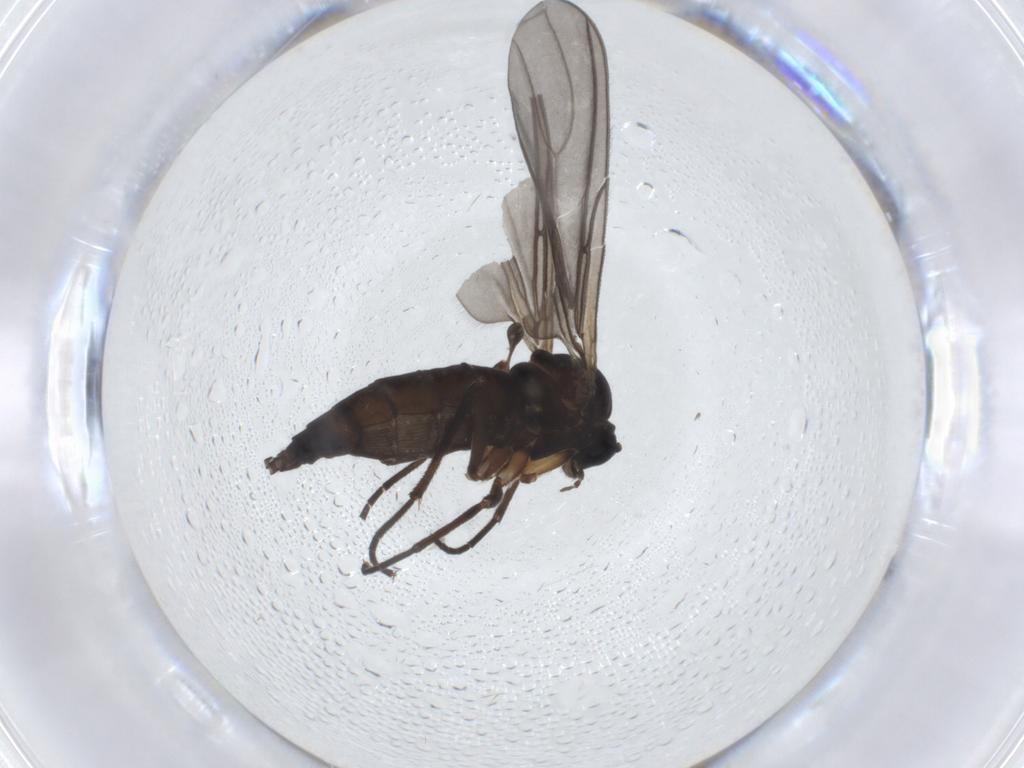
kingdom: Animalia
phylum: Arthropoda
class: Insecta
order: Diptera
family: Sciaridae
